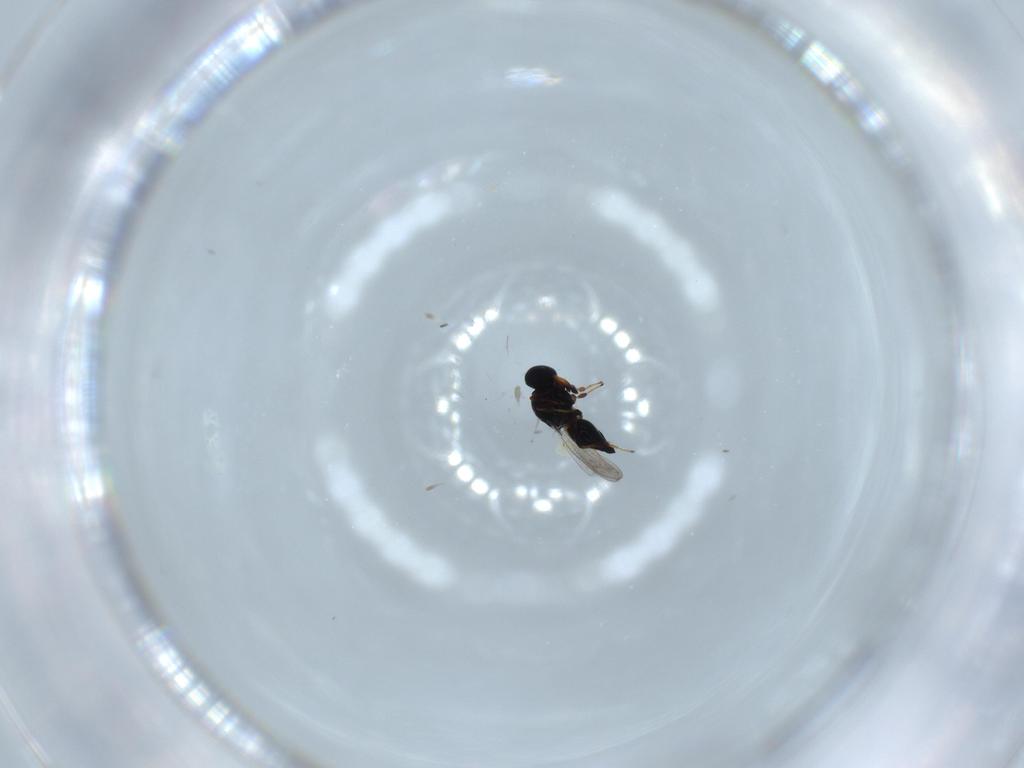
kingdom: Animalia
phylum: Arthropoda
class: Insecta
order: Hymenoptera
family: Platygastridae
